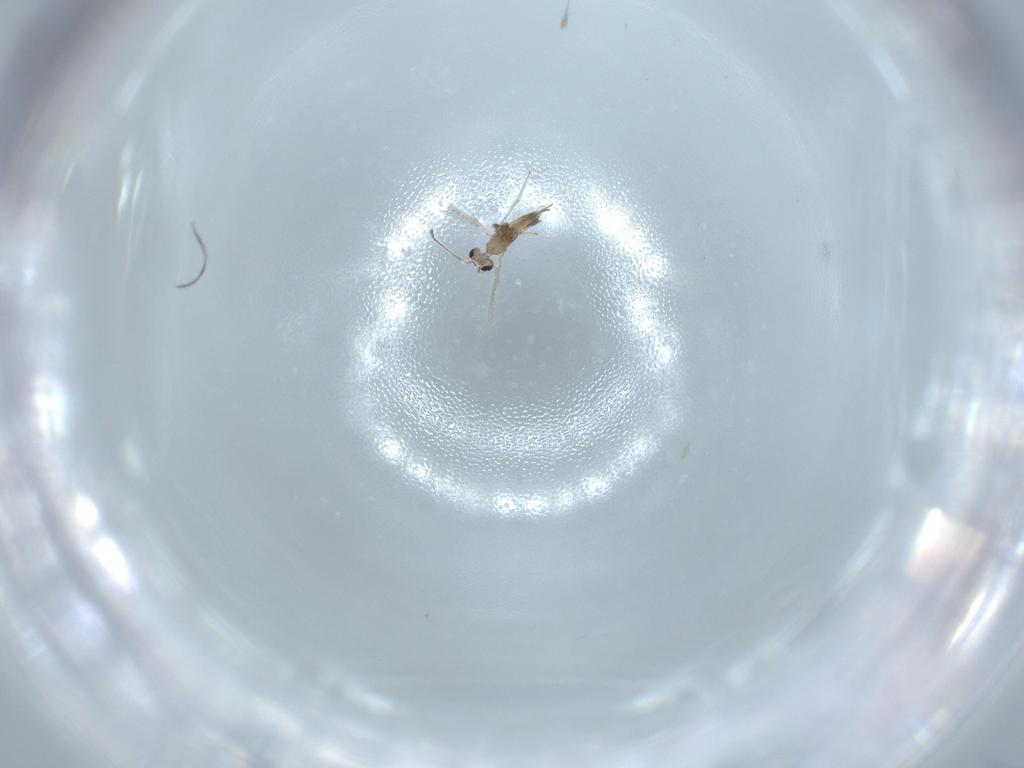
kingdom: Animalia
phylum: Arthropoda
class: Insecta
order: Hymenoptera
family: Mymaridae
